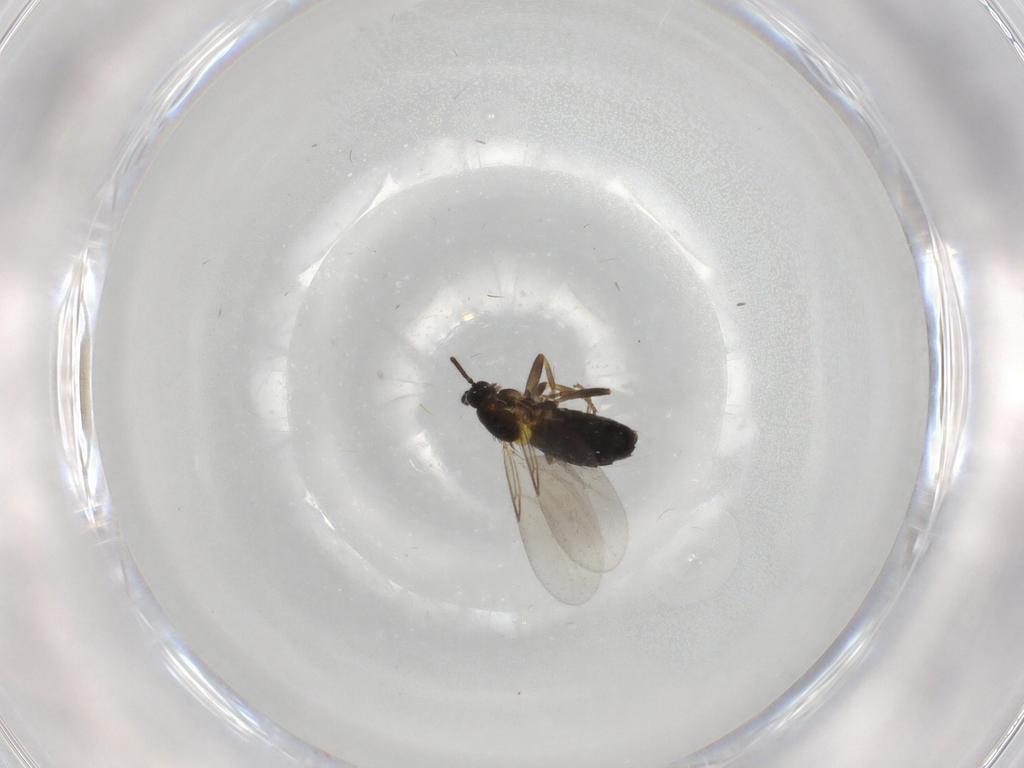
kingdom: Animalia
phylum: Arthropoda
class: Insecta
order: Diptera
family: Scatopsidae
